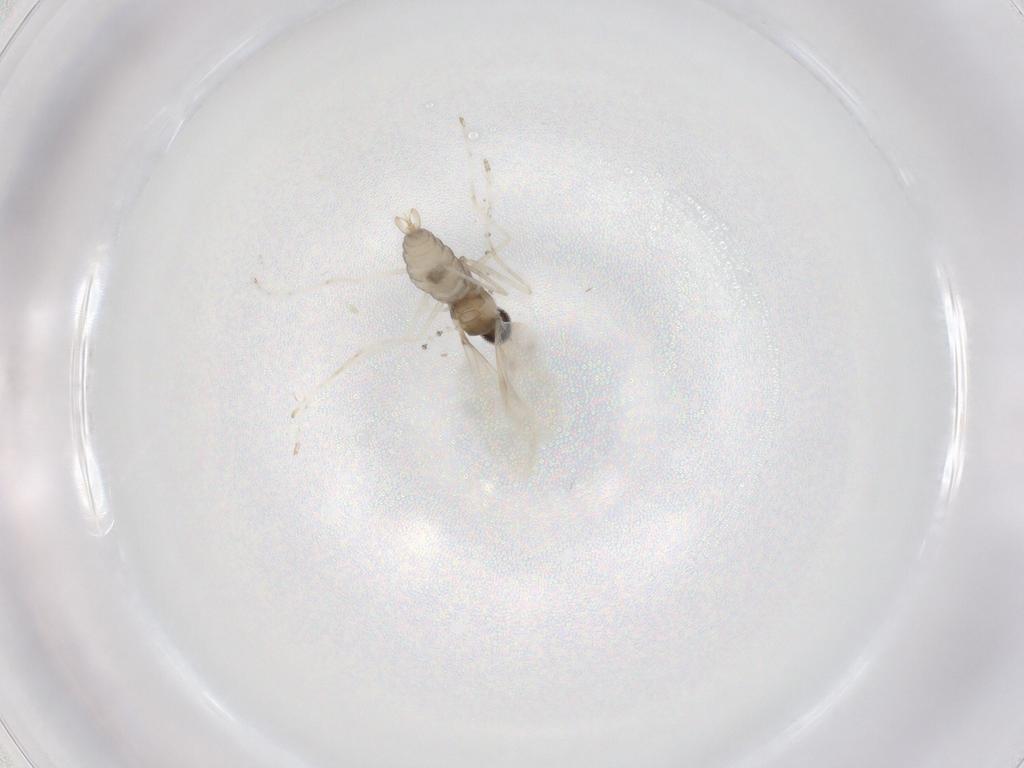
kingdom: Animalia
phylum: Arthropoda
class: Insecta
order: Diptera
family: Cecidomyiidae
